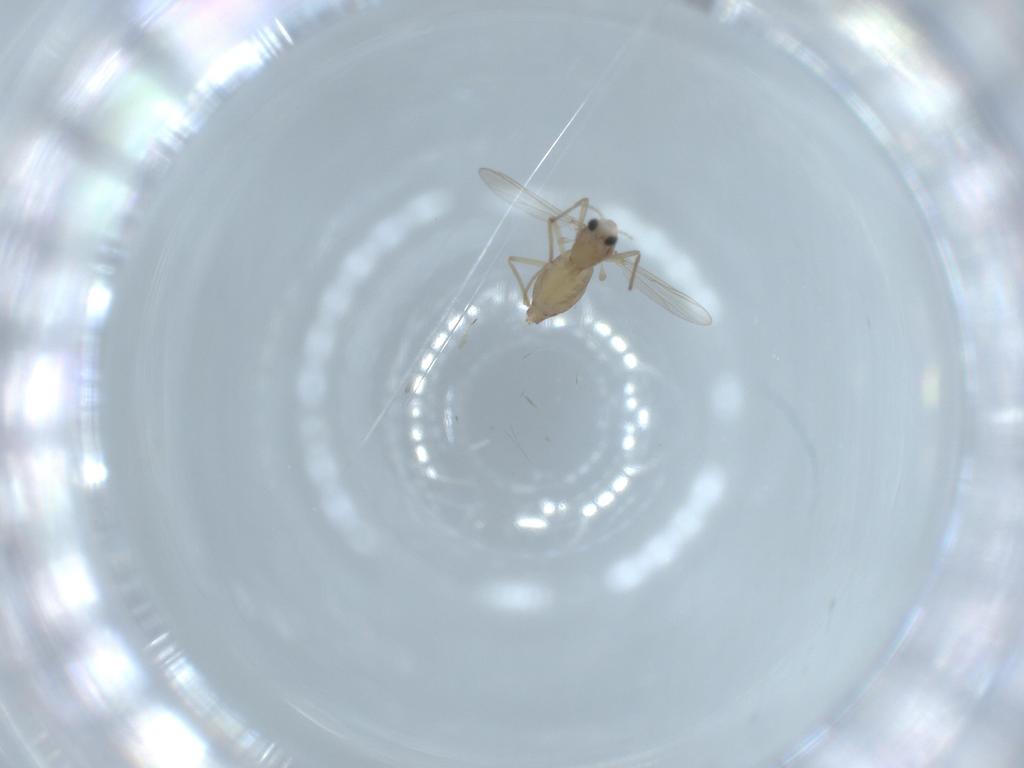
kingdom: Animalia
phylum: Arthropoda
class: Insecta
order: Diptera
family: Chironomidae
